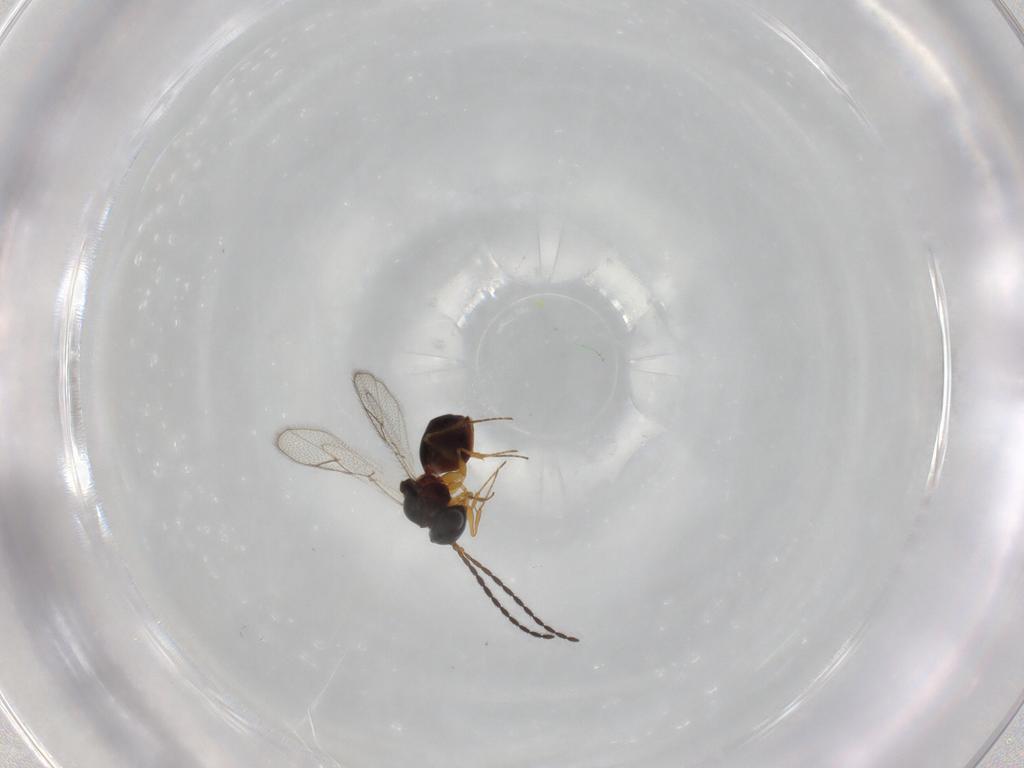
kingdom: Animalia
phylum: Arthropoda
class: Insecta
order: Hymenoptera
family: Figitidae
